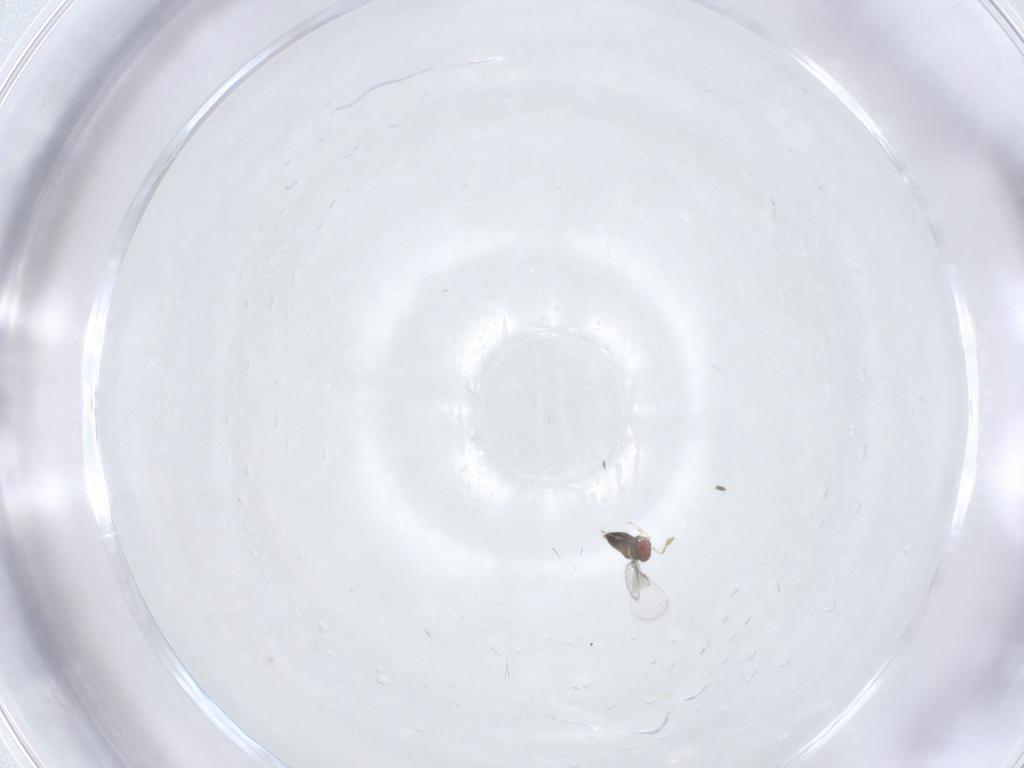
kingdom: Animalia
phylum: Arthropoda
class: Insecta
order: Hymenoptera
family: Trichogrammatidae
